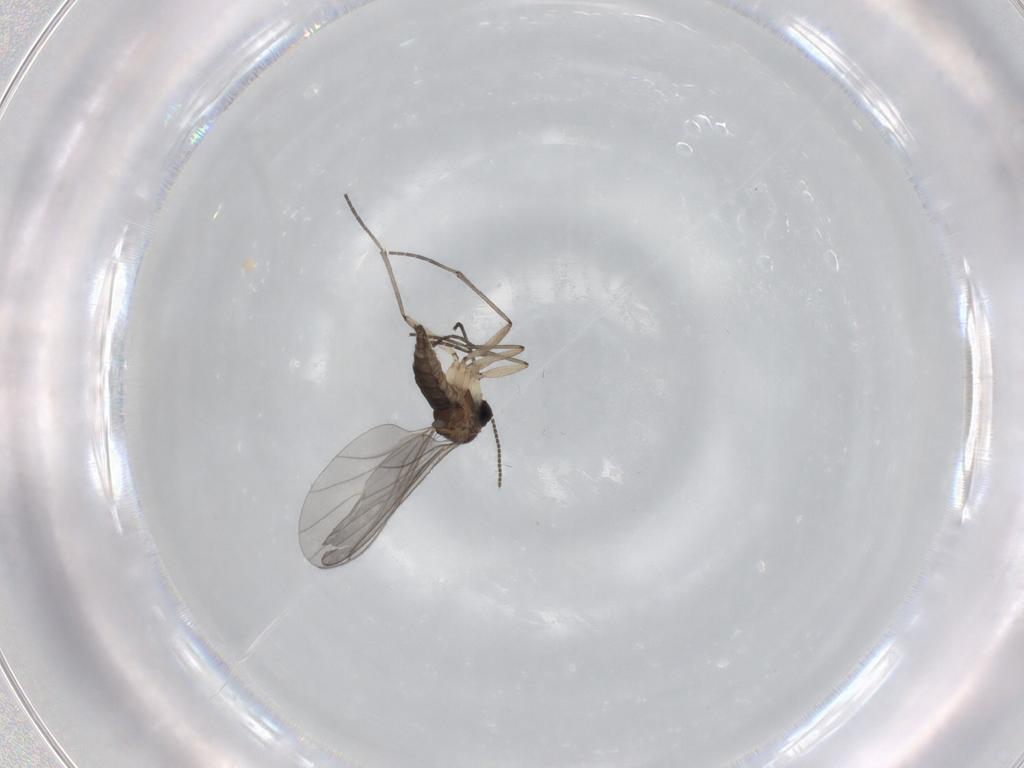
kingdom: Animalia
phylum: Arthropoda
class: Insecta
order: Diptera
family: Sciaridae
